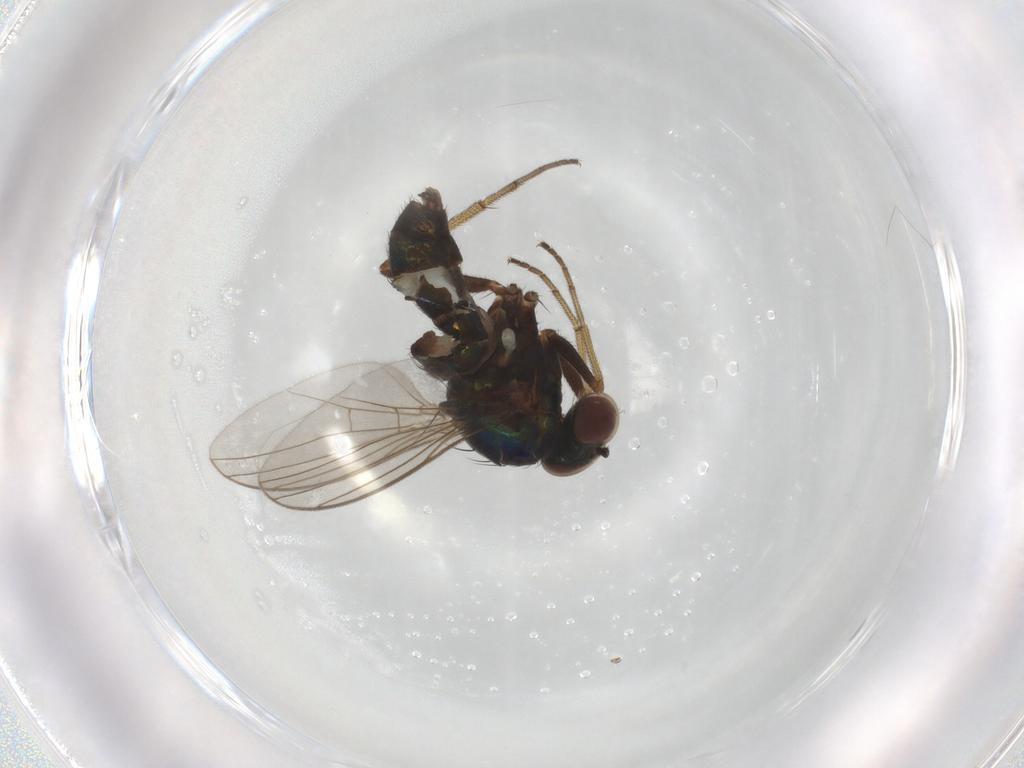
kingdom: Animalia
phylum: Arthropoda
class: Insecta
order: Diptera
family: Dolichopodidae
